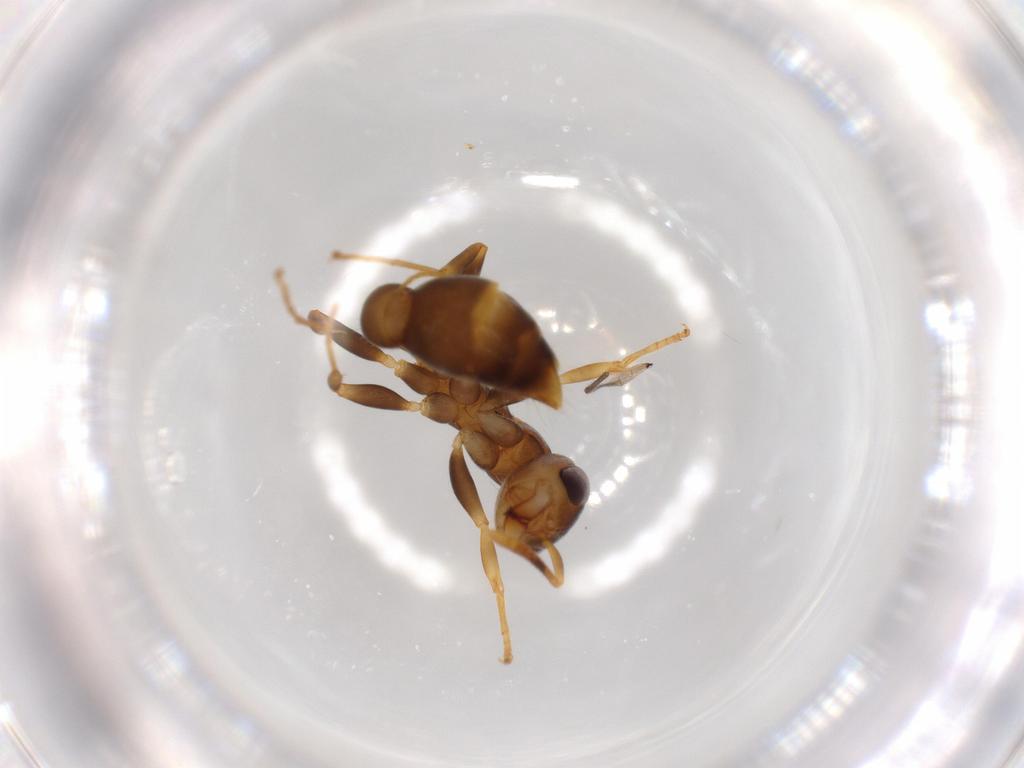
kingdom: Animalia
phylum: Arthropoda
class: Insecta
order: Hymenoptera
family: Formicidae
